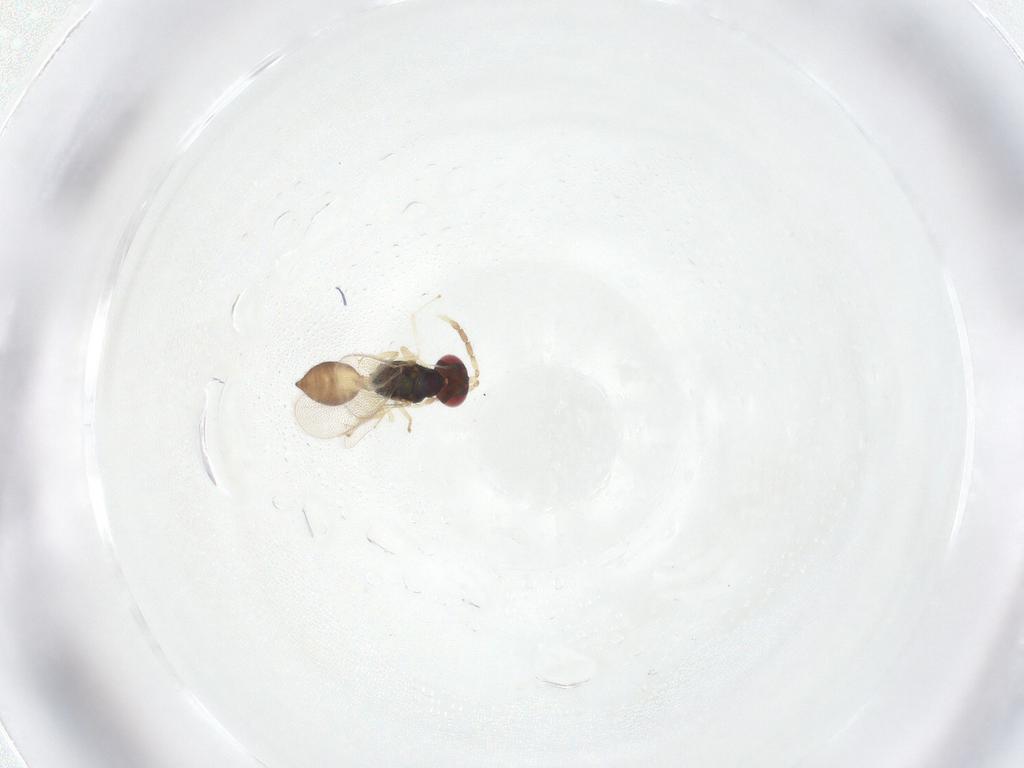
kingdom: Animalia
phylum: Arthropoda
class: Insecta
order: Hymenoptera
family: Eulophidae
